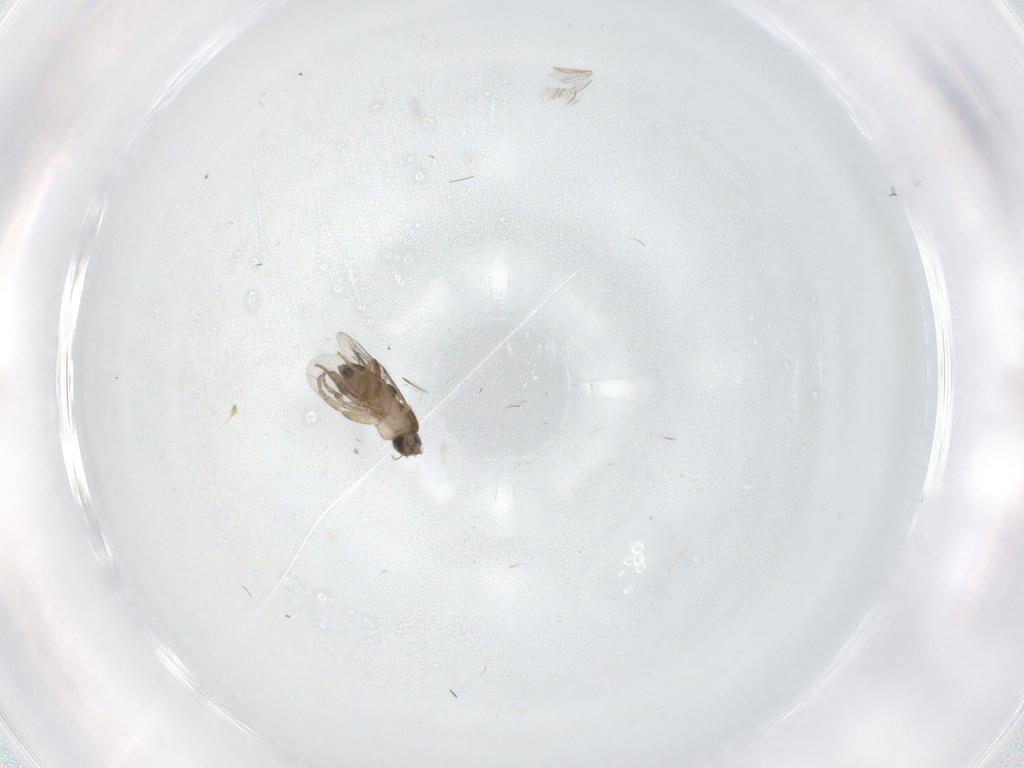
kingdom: Animalia
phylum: Arthropoda
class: Insecta
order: Diptera
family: Phoridae
